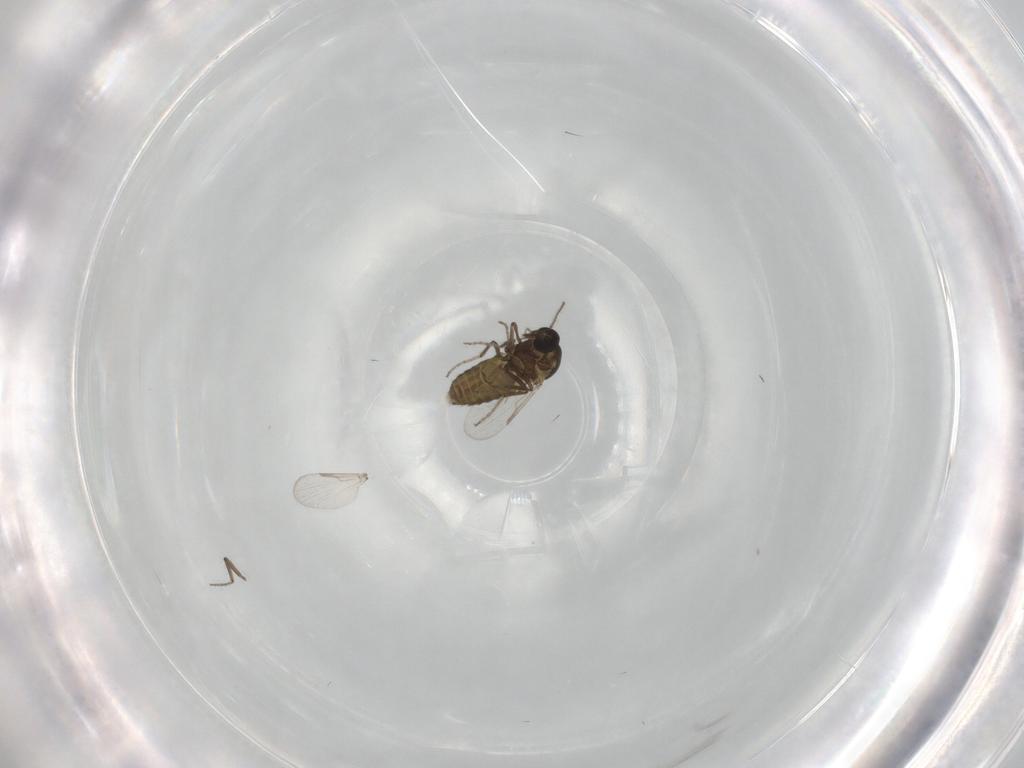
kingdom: Animalia
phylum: Arthropoda
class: Insecta
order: Diptera
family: Ceratopogonidae
